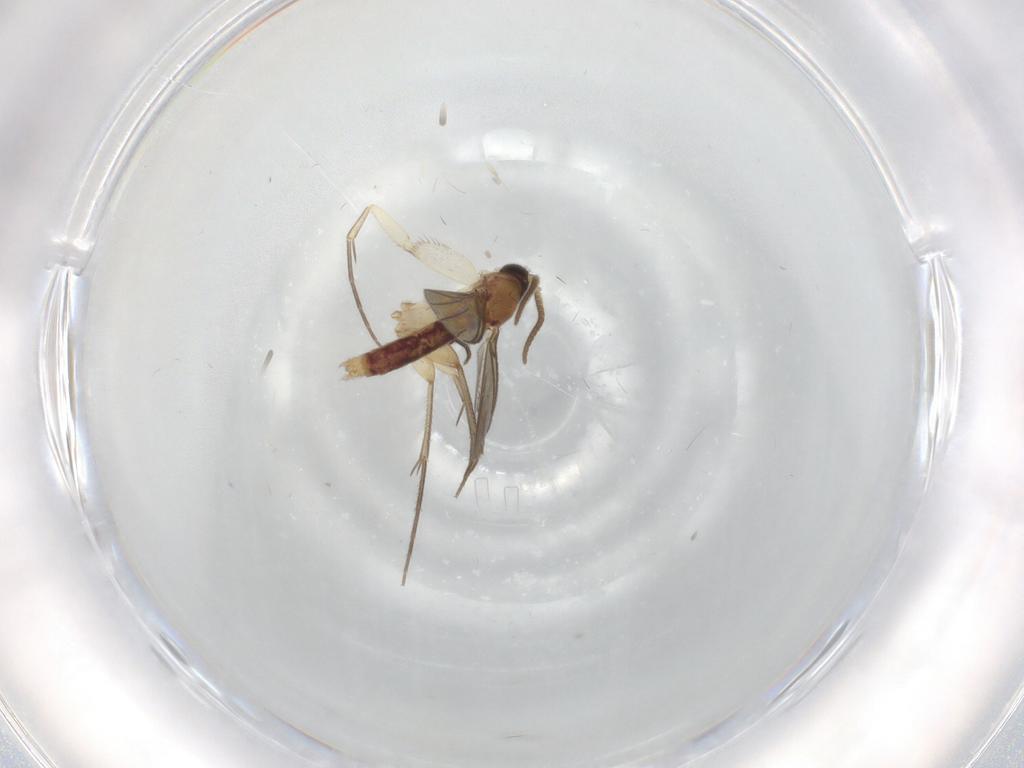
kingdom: Animalia
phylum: Arthropoda
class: Insecta
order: Diptera
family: Mycetophilidae
